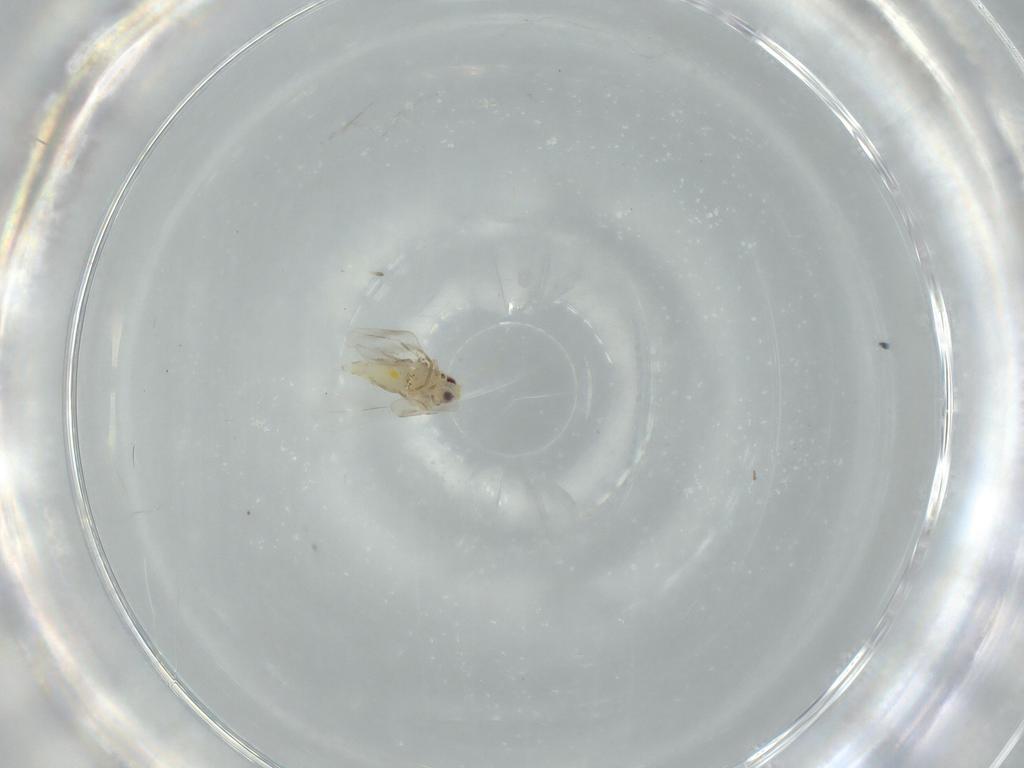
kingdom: Animalia
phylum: Arthropoda
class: Insecta
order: Hemiptera
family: Aleyrodidae
